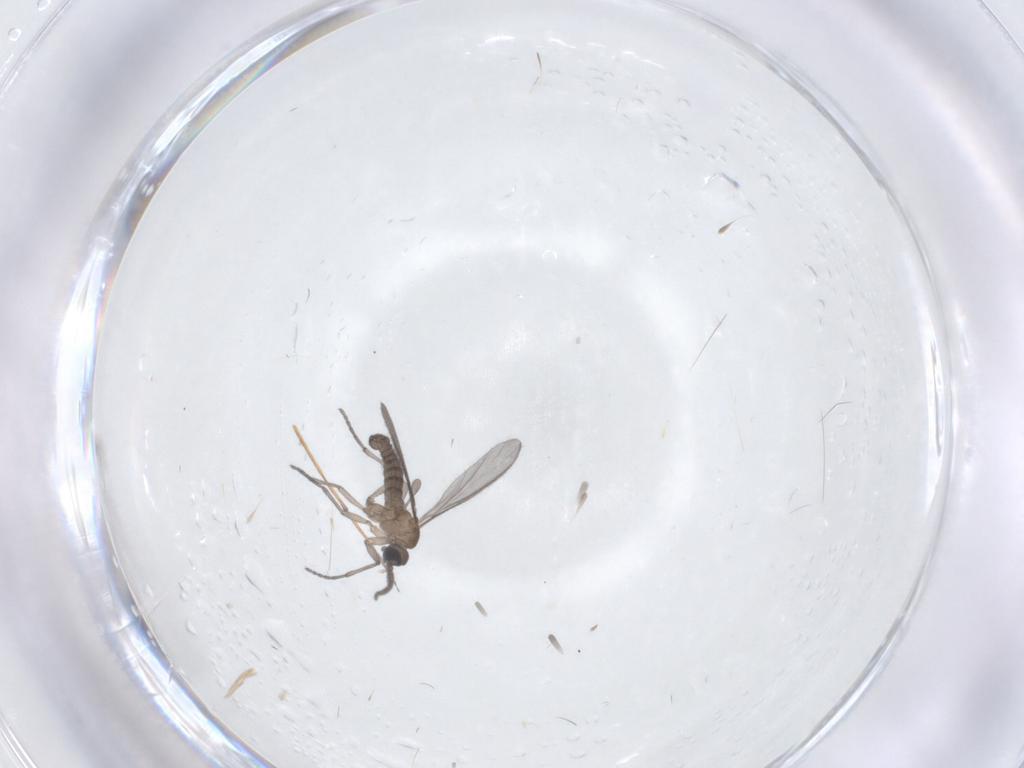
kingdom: Animalia
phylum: Arthropoda
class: Insecta
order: Diptera
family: Sciaridae
